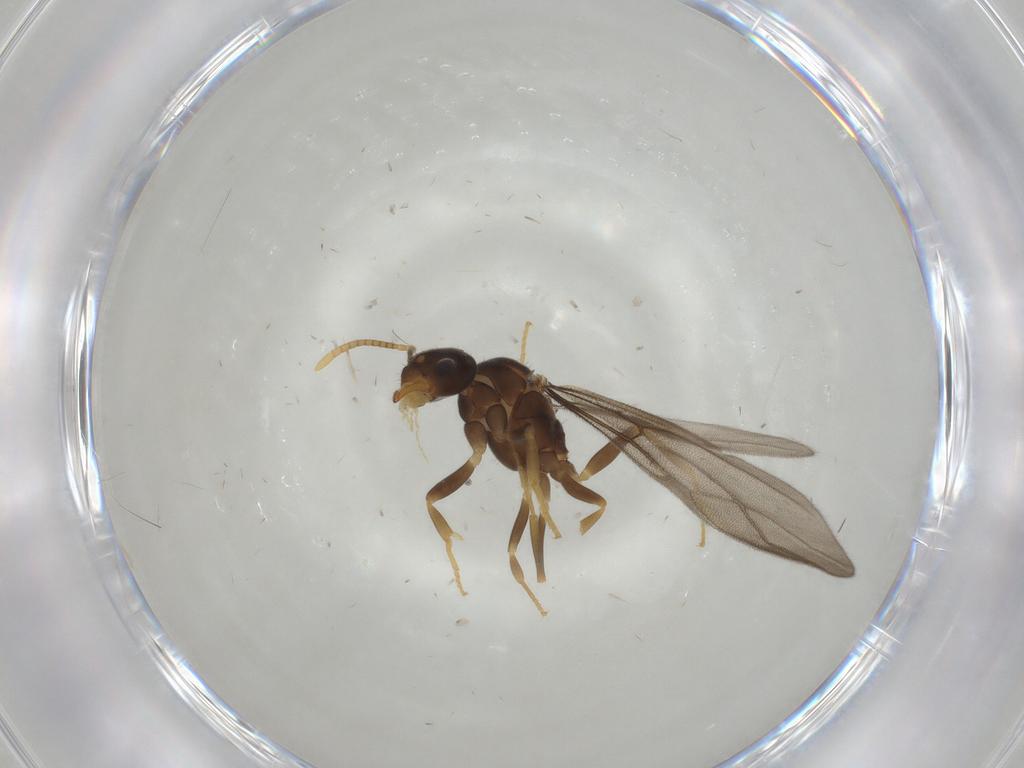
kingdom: Animalia
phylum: Arthropoda
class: Insecta
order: Hymenoptera
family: Formicidae
